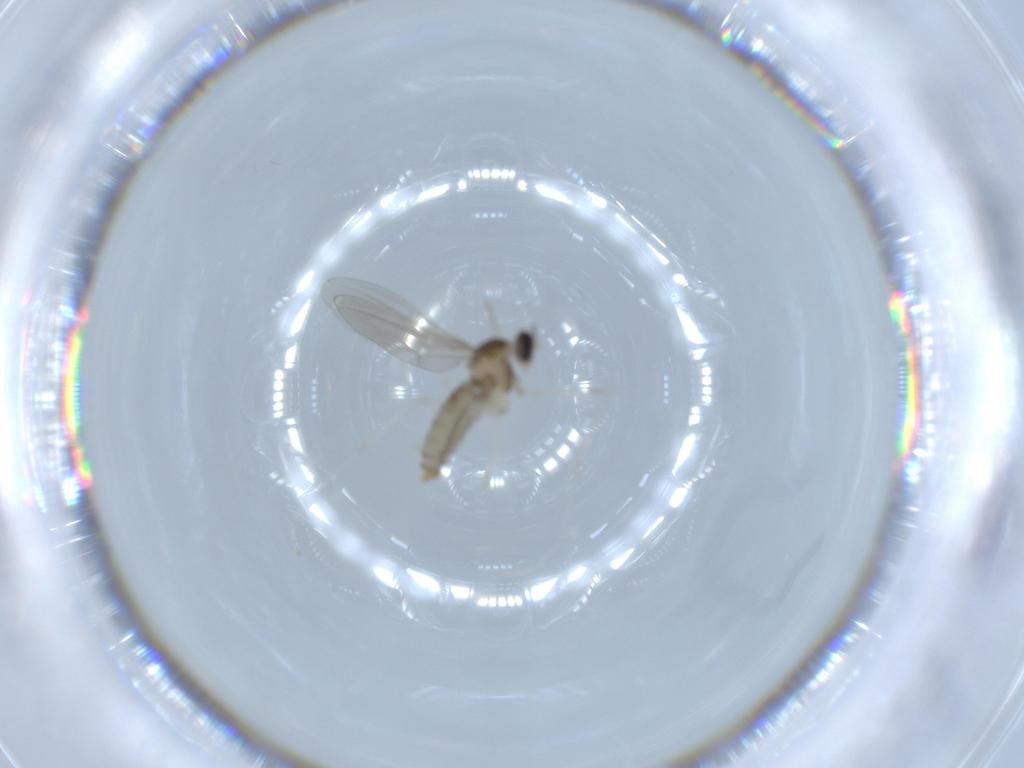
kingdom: Animalia
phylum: Arthropoda
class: Insecta
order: Diptera
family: Cecidomyiidae
